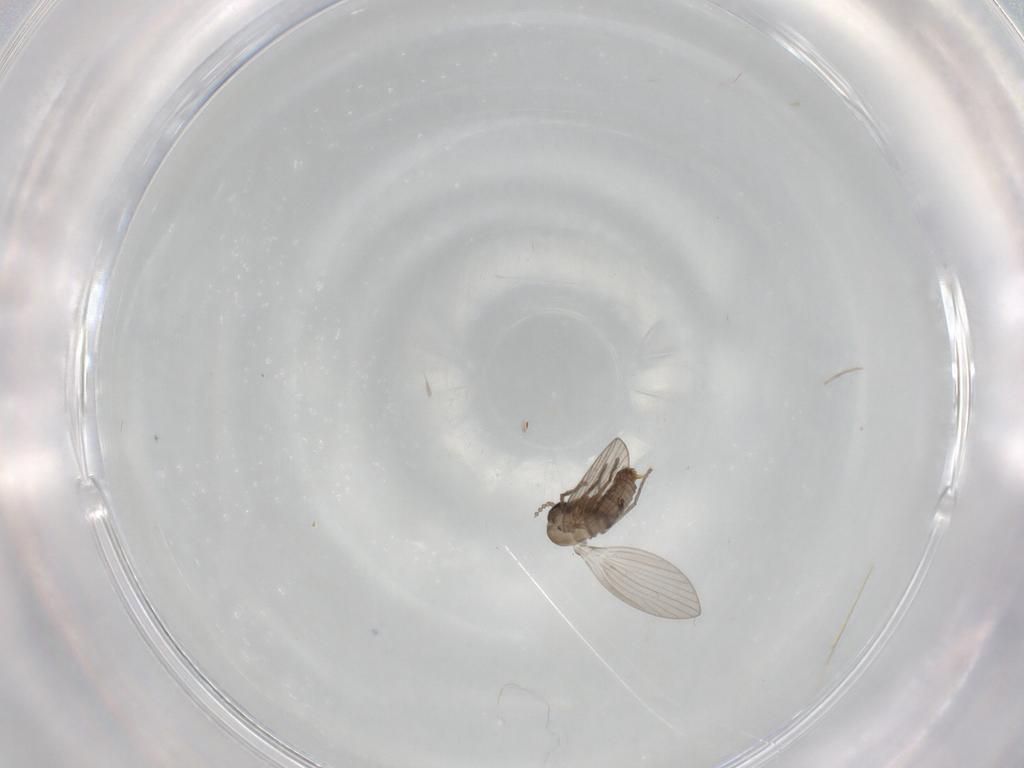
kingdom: Animalia
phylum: Arthropoda
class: Insecta
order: Diptera
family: Psychodidae
